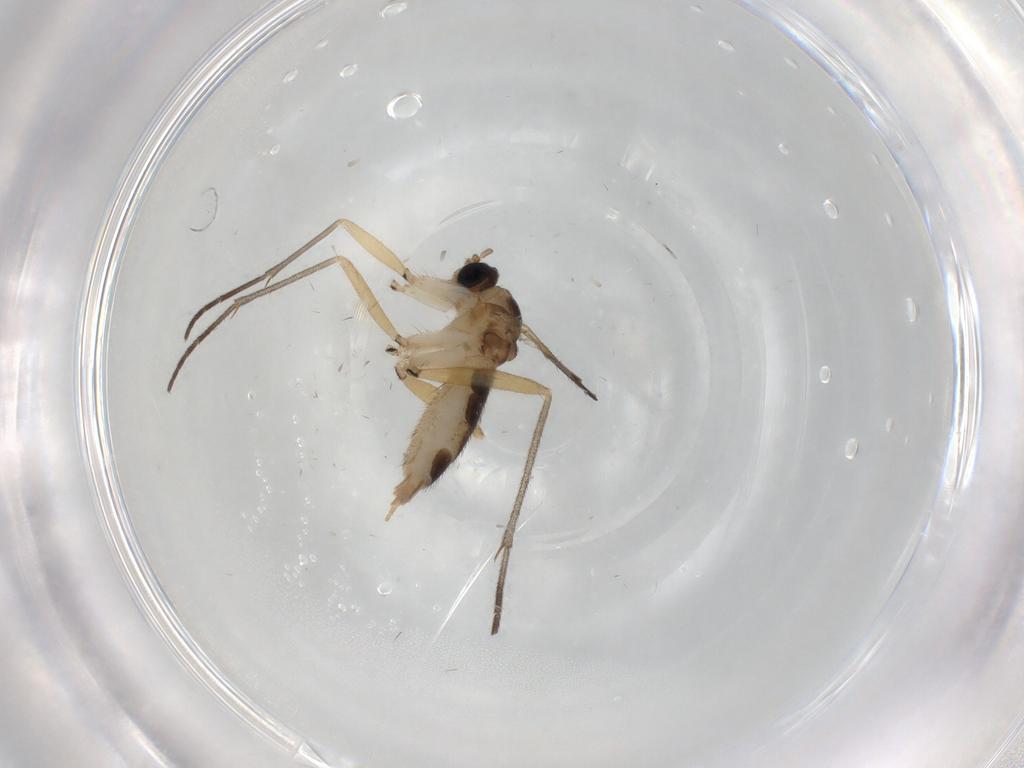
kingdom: Animalia
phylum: Arthropoda
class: Insecta
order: Diptera
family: Sciaridae
